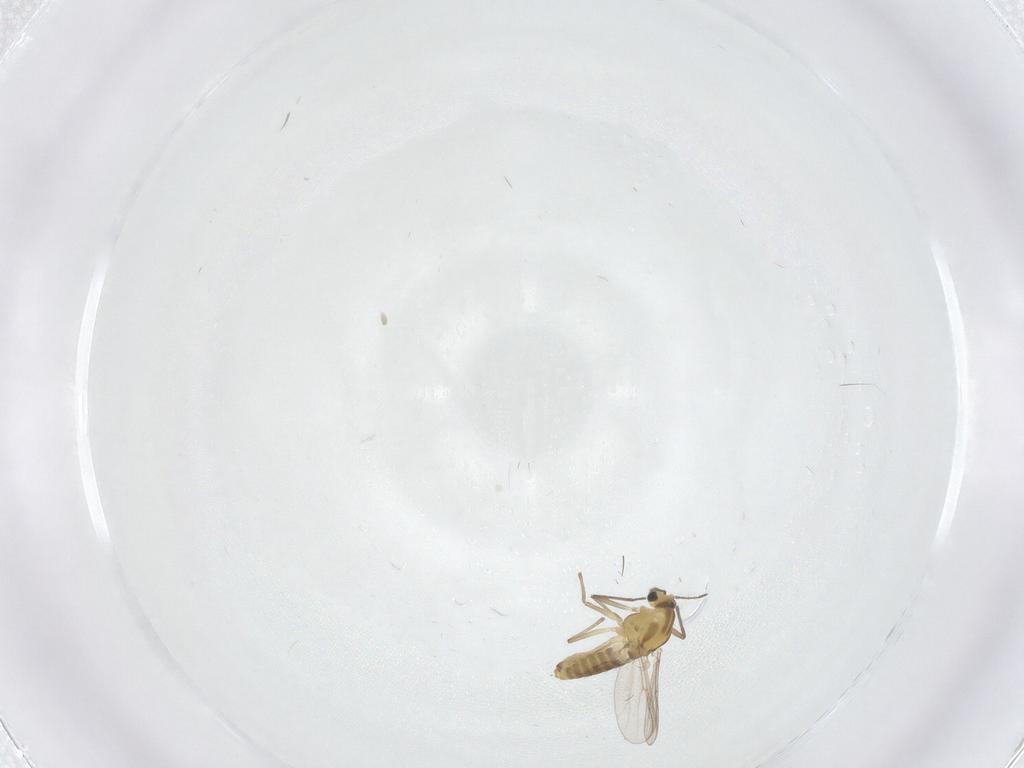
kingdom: Animalia
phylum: Arthropoda
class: Insecta
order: Diptera
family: Chironomidae
